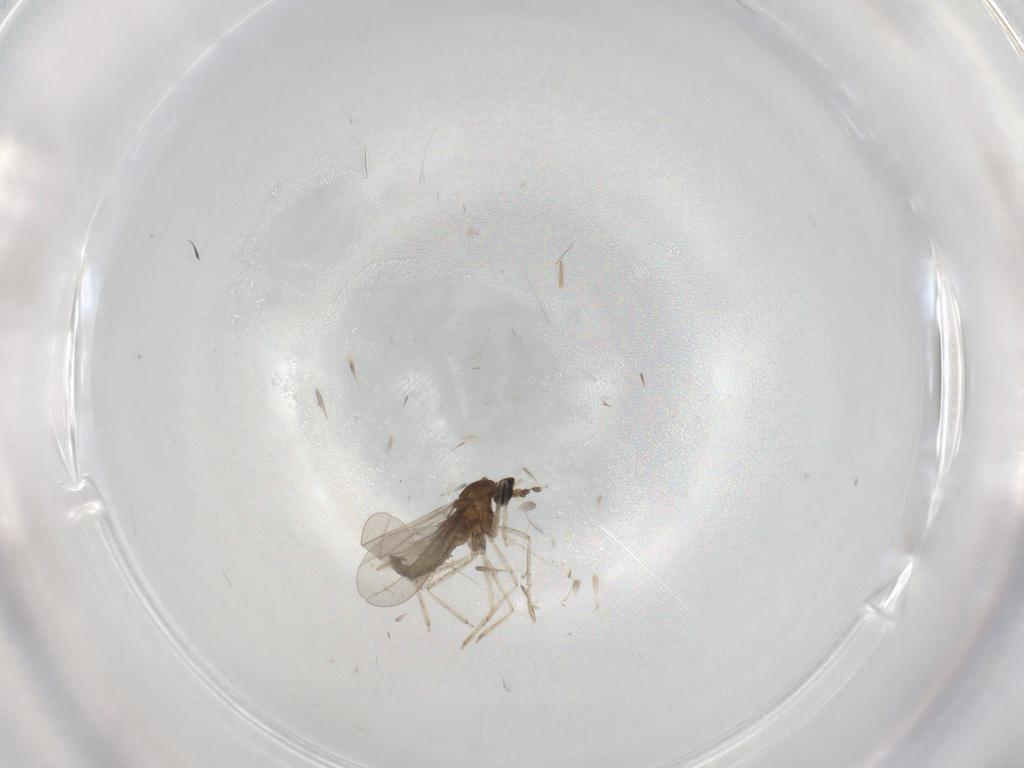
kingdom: Animalia
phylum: Arthropoda
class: Insecta
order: Diptera
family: Chironomidae
